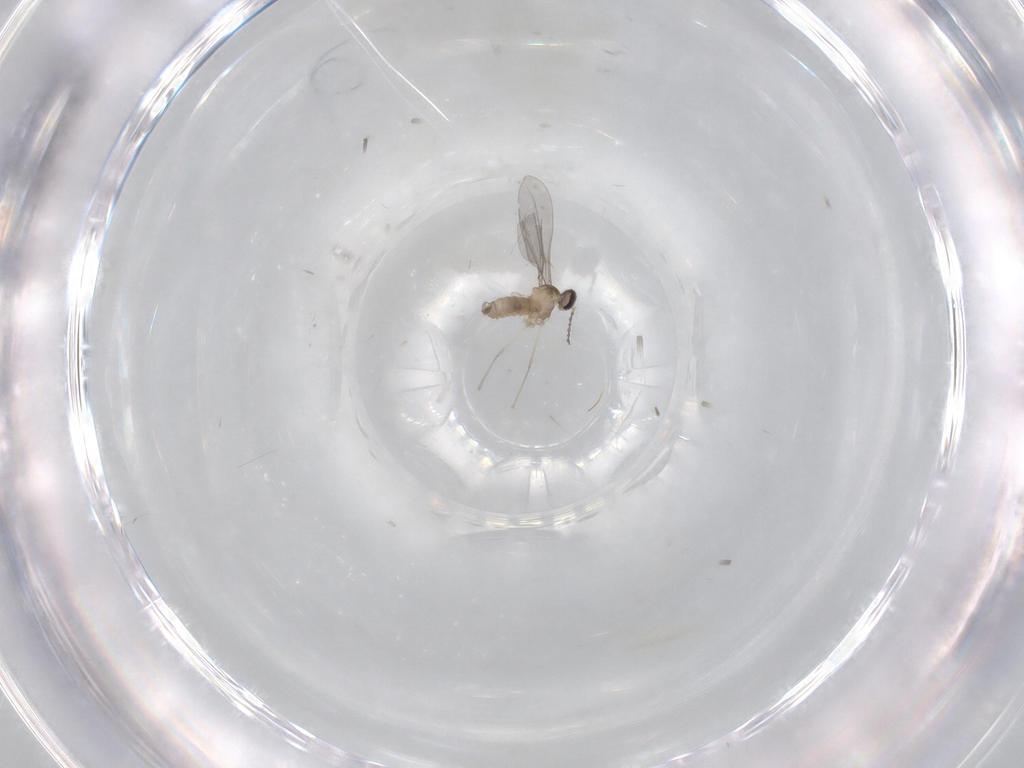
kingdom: Animalia
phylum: Arthropoda
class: Insecta
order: Diptera
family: Cecidomyiidae
